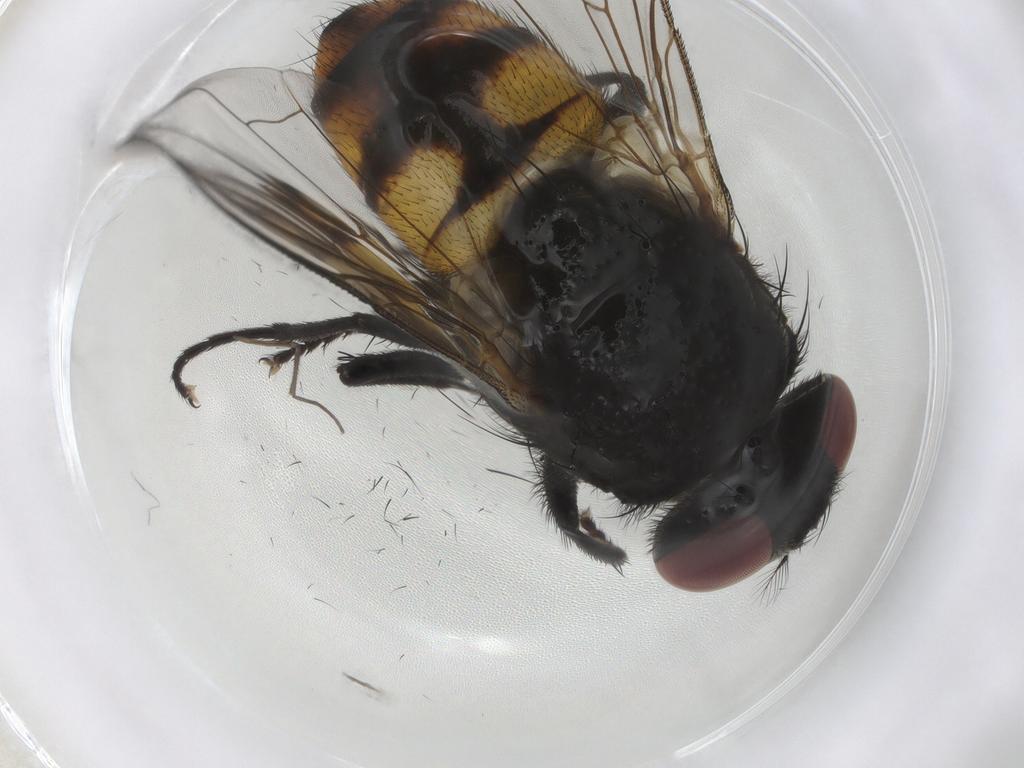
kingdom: Animalia
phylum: Arthropoda
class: Insecta
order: Diptera
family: Muscidae
